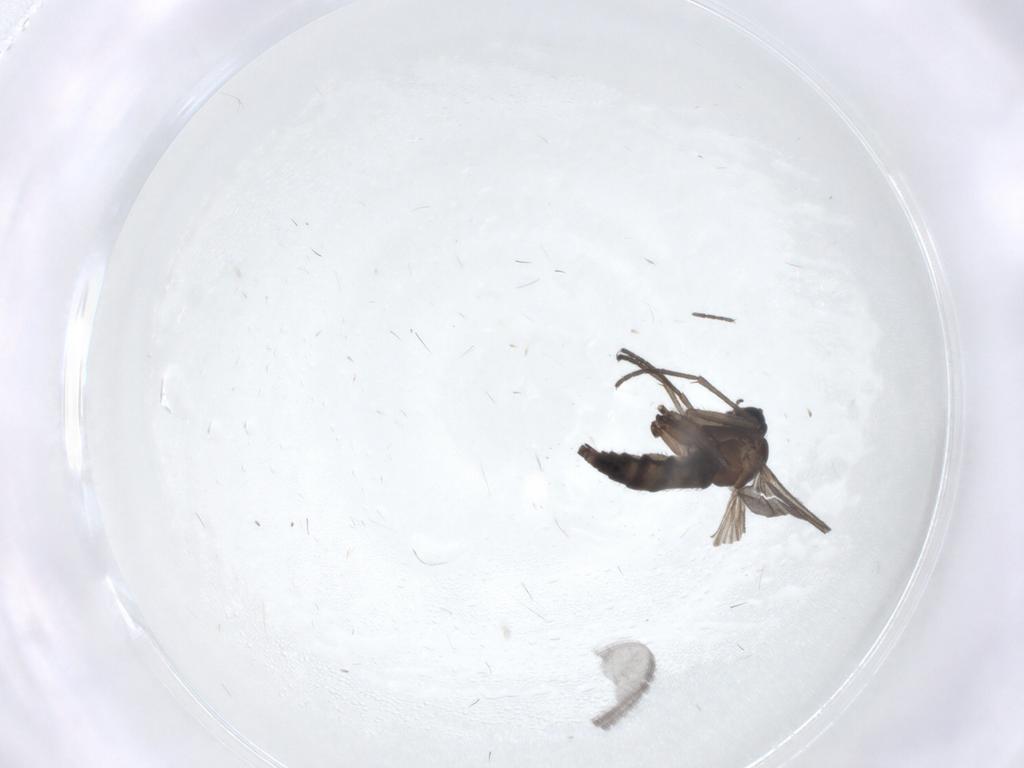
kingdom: Animalia
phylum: Arthropoda
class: Insecta
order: Diptera
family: Sciaridae
